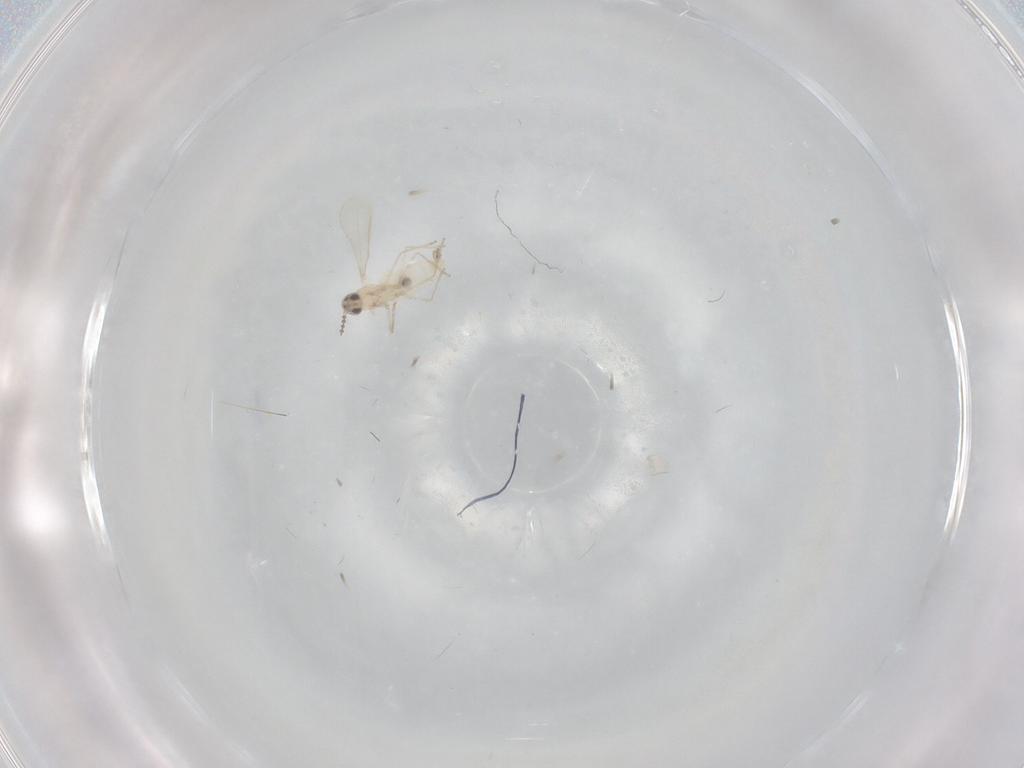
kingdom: Animalia
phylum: Arthropoda
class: Insecta
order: Diptera
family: Cecidomyiidae
